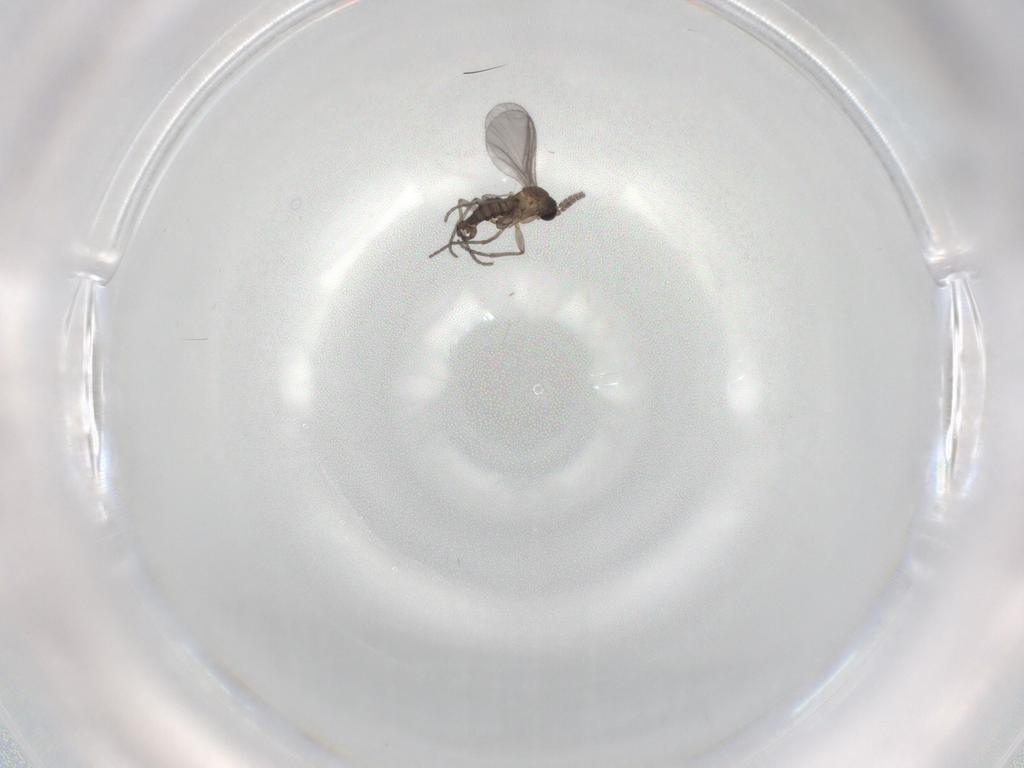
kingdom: Animalia
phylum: Arthropoda
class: Insecta
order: Diptera
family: Sciaridae
